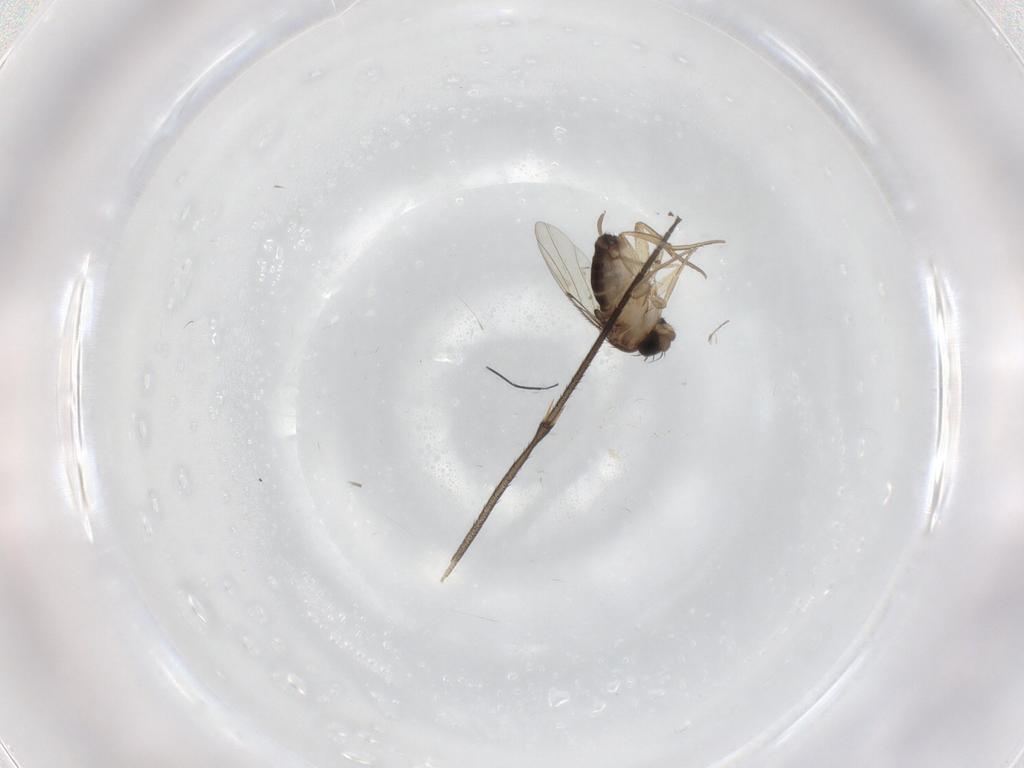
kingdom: Animalia
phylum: Arthropoda
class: Insecta
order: Diptera
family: Sciaridae
